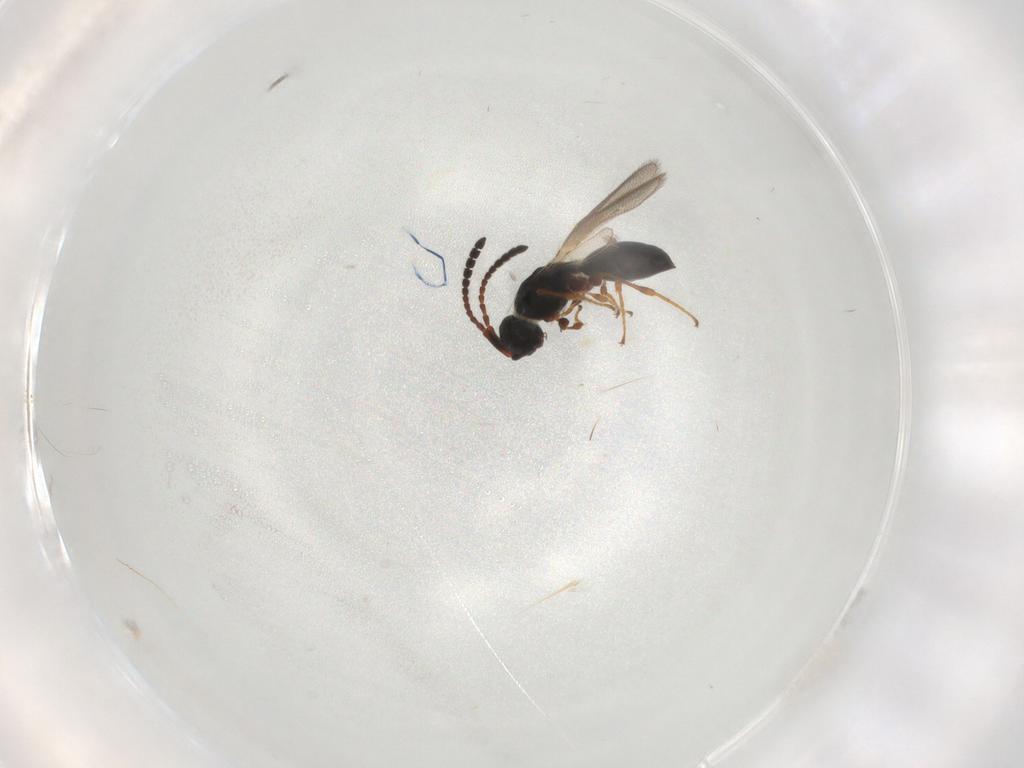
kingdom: Animalia
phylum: Arthropoda
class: Insecta
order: Hymenoptera
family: Diapriidae
